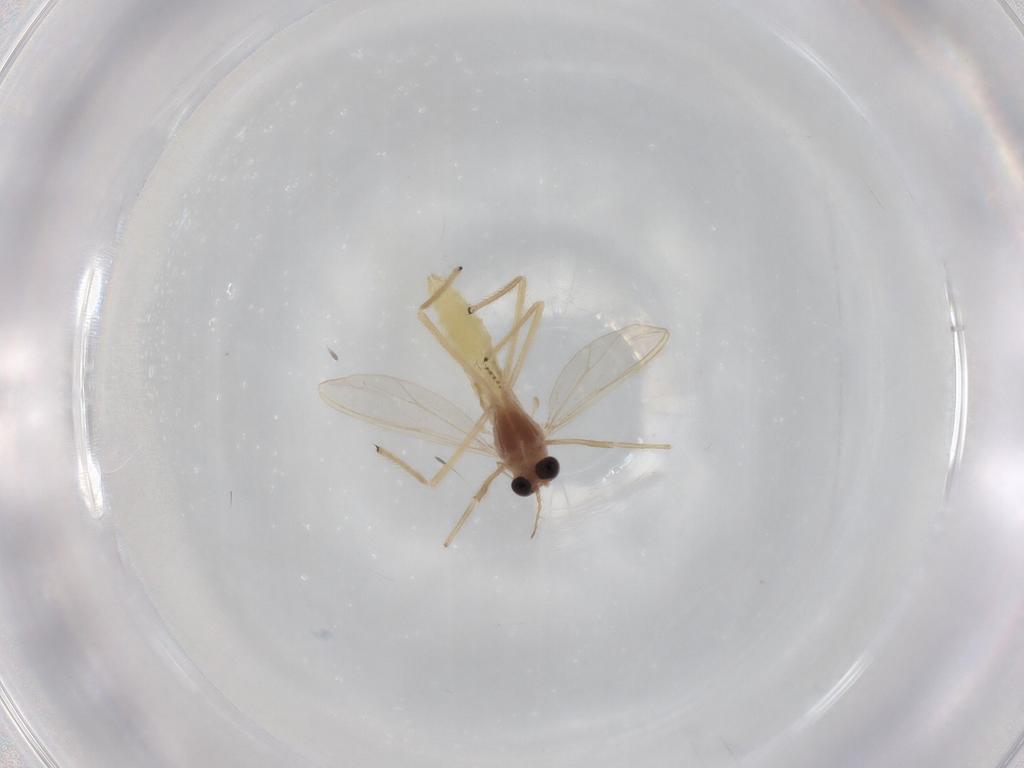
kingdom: Animalia
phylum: Arthropoda
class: Insecta
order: Diptera
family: Chironomidae
